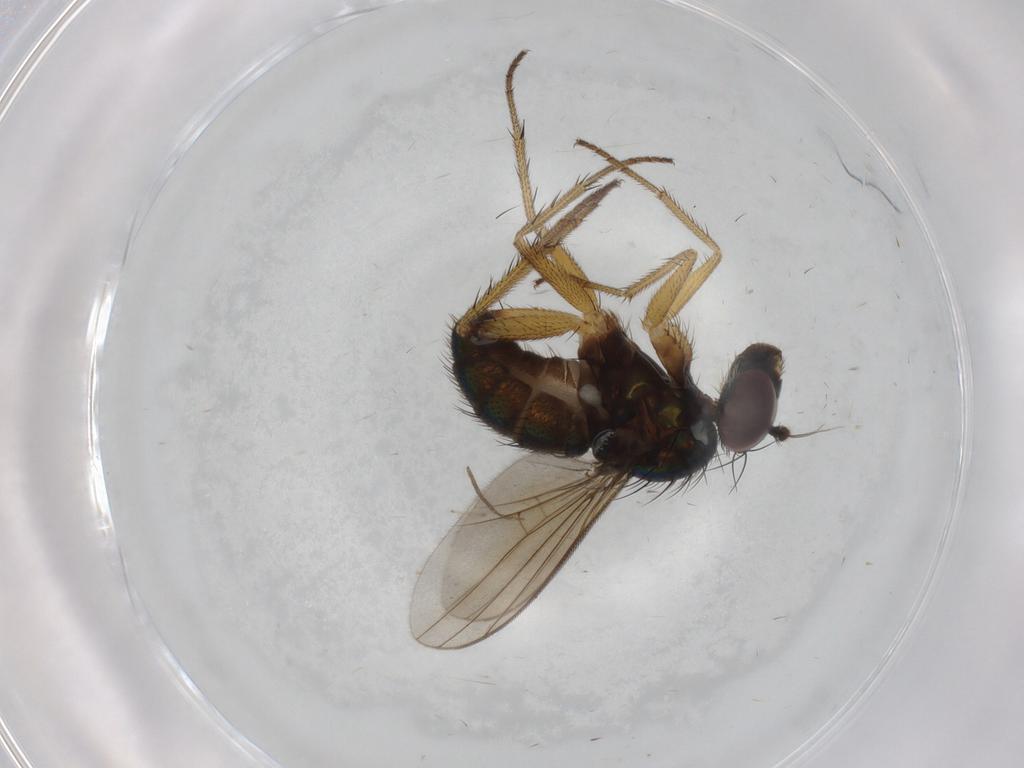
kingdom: Animalia
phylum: Arthropoda
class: Insecta
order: Diptera
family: Dolichopodidae
